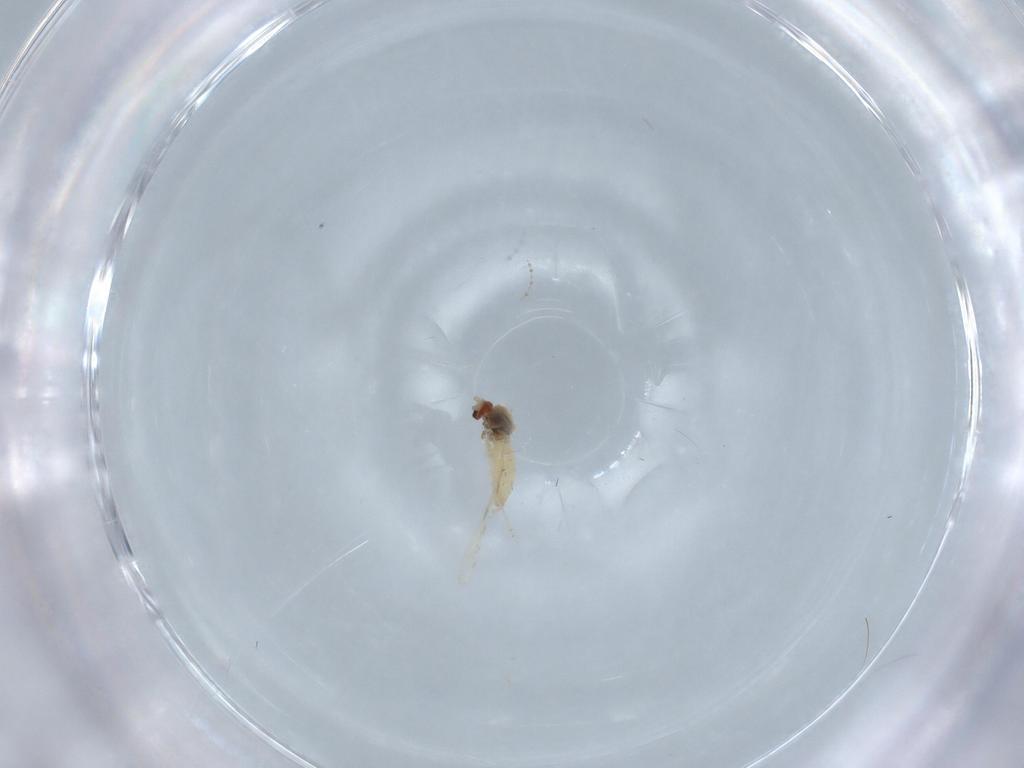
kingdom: Animalia
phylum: Arthropoda
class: Insecta
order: Diptera
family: Cecidomyiidae
